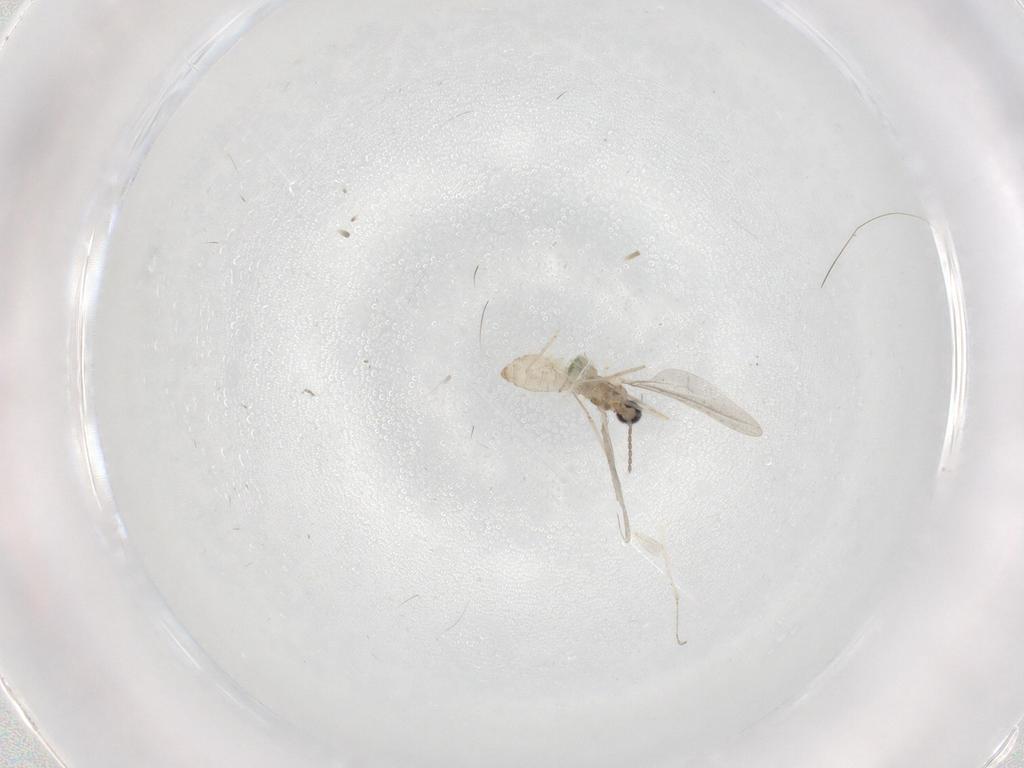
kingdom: Animalia
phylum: Arthropoda
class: Insecta
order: Diptera
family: Cecidomyiidae
